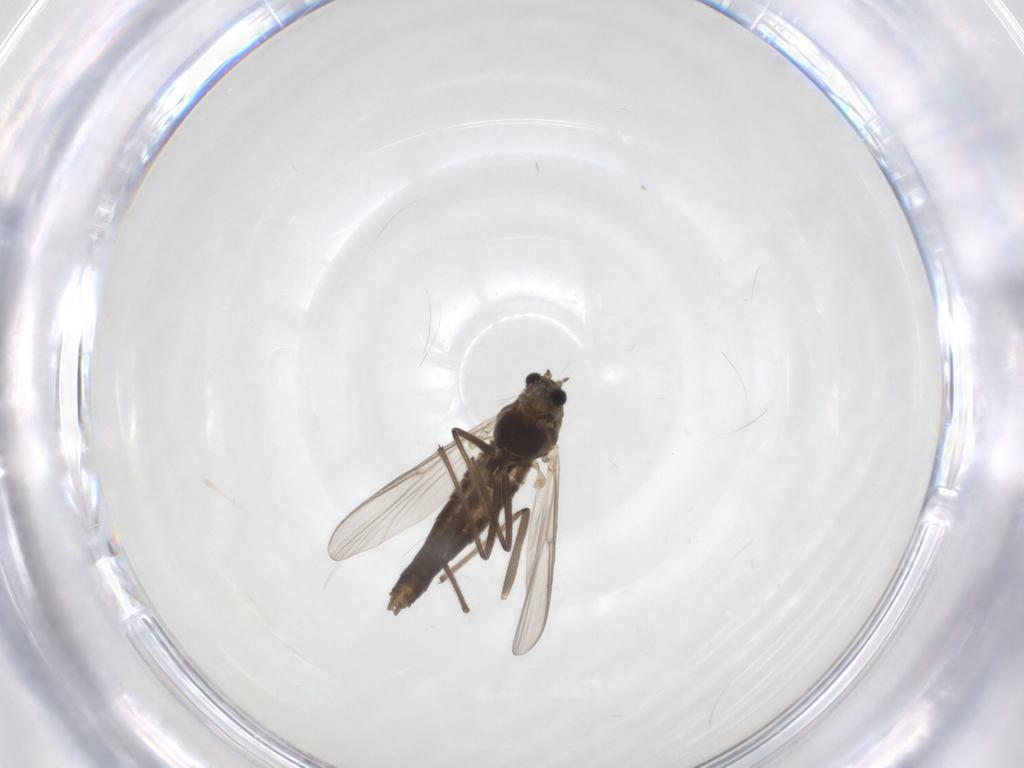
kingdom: Animalia
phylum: Arthropoda
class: Insecta
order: Diptera
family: Chironomidae
